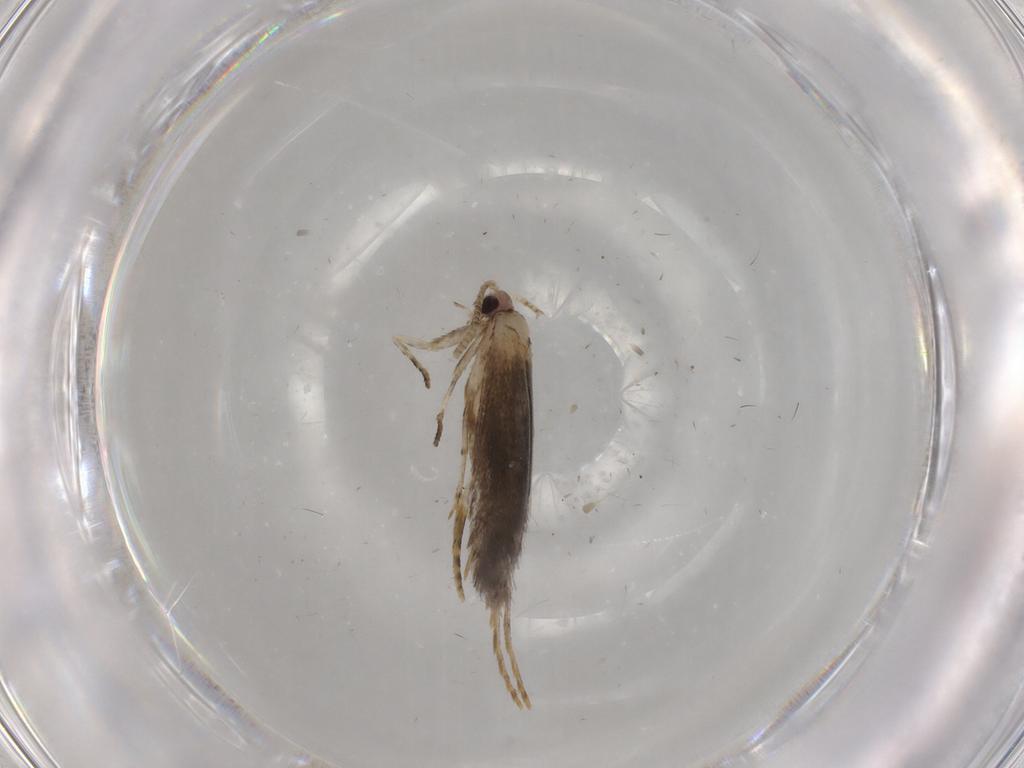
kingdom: Animalia
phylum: Arthropoda
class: Insecta
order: Lepidoptera
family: Tineidae
